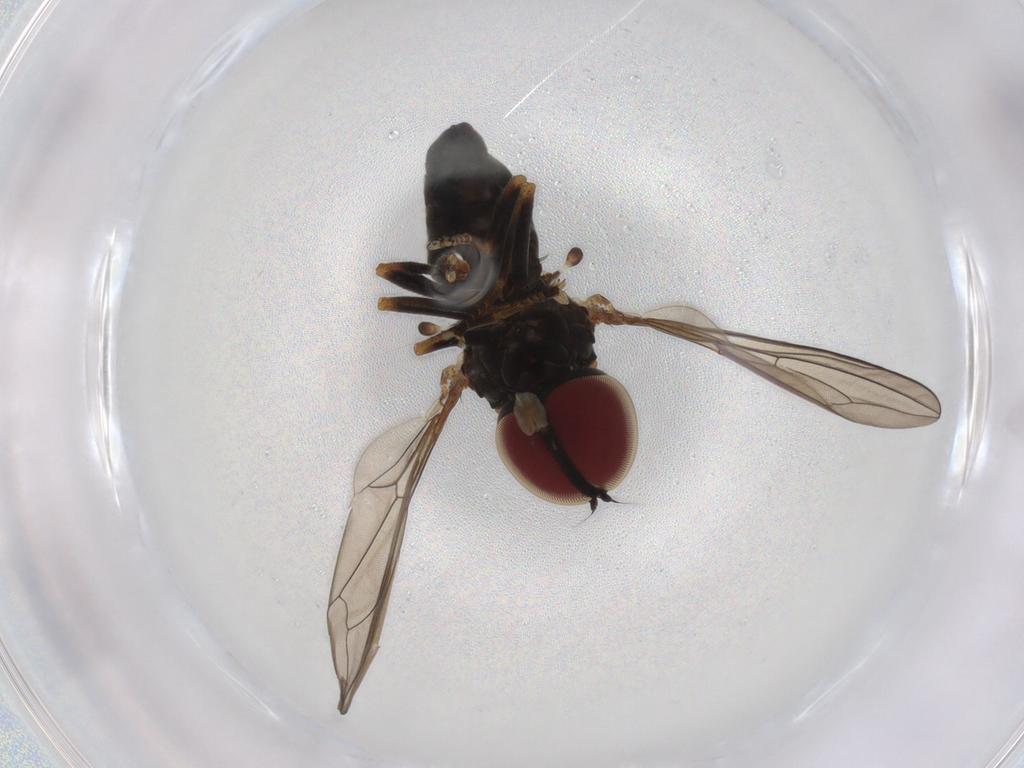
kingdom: Animalia
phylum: Arthropoda
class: Insecta
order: Diptera
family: Pipunculidae
